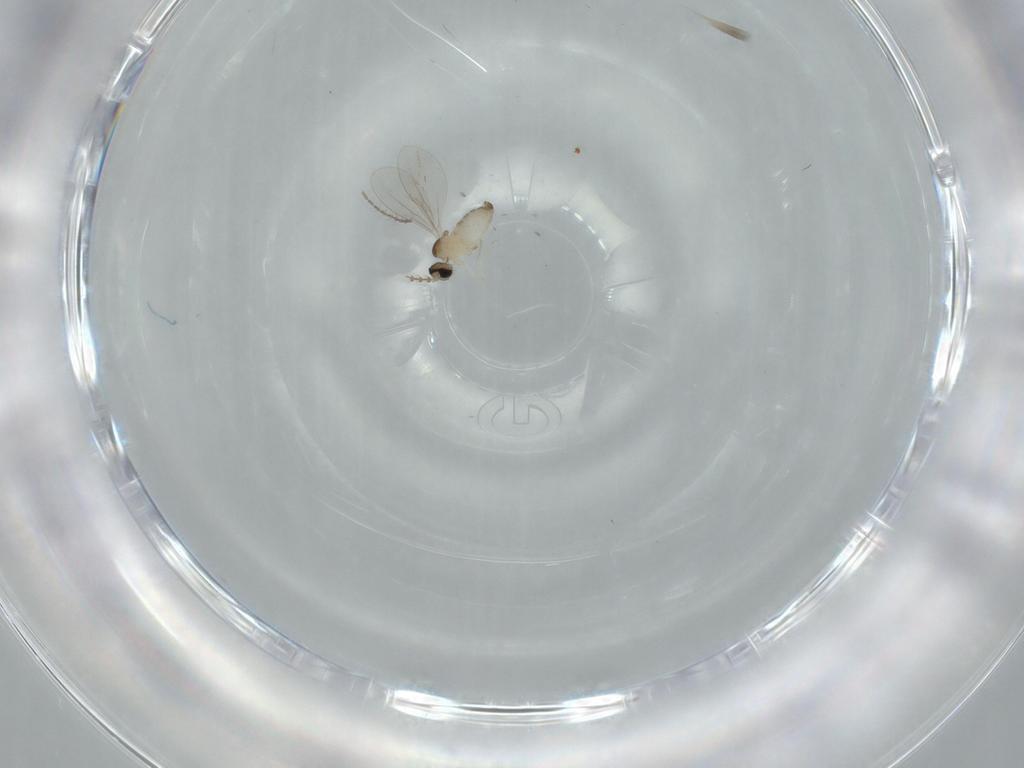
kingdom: Animalia
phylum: Arthropoda
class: Insecta
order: Diptera
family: Cecidomyiidae
